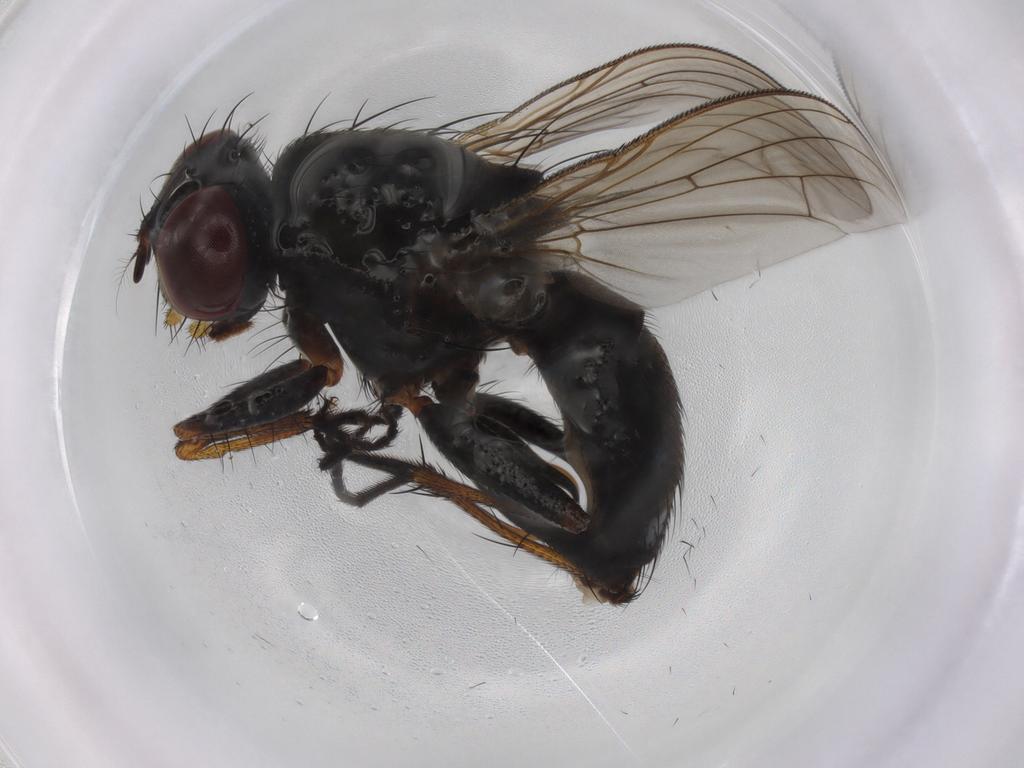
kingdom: Animalia
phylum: Arthropoda
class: Insecta
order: Diptera
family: Muscidae
